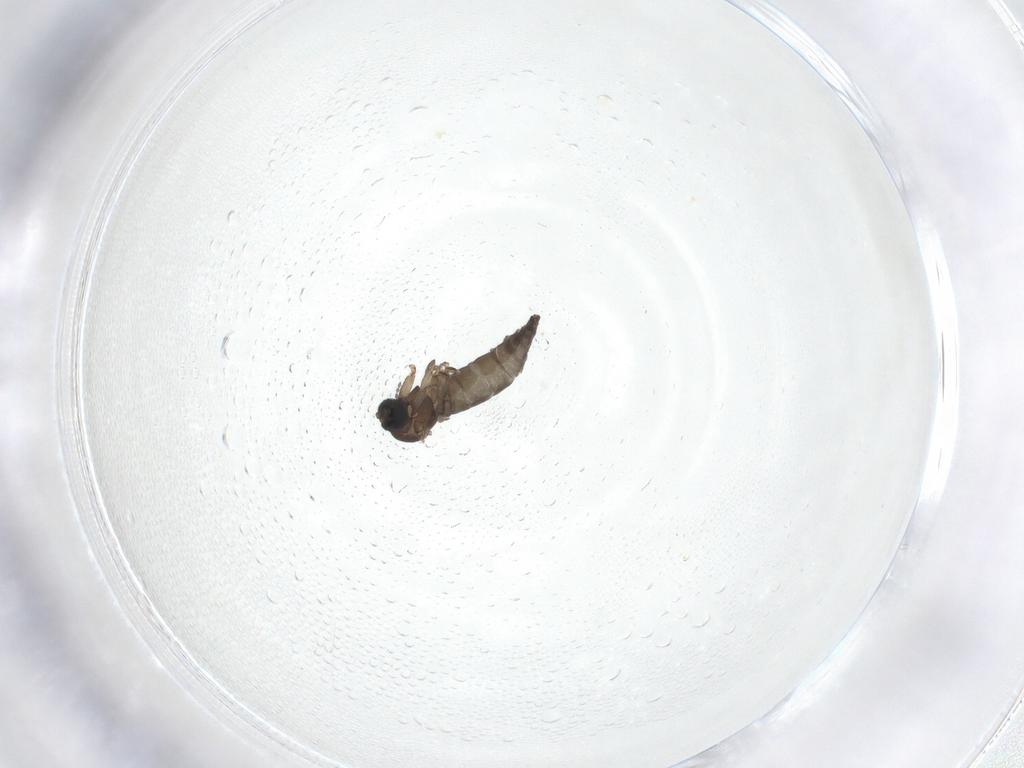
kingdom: Animalia
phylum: Arthropoda
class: Insecta
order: Diptera
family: Sciaridae
